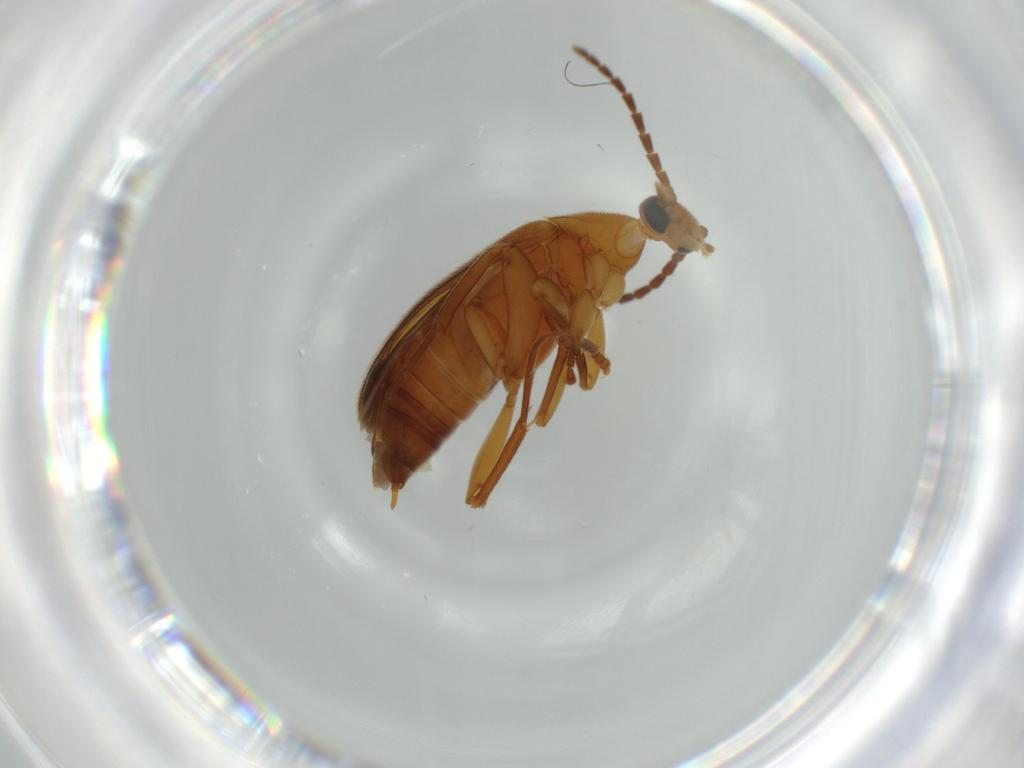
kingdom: Animalia
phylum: Arthropoda
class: Insecta
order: Coleoptera
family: Scraptiidae
